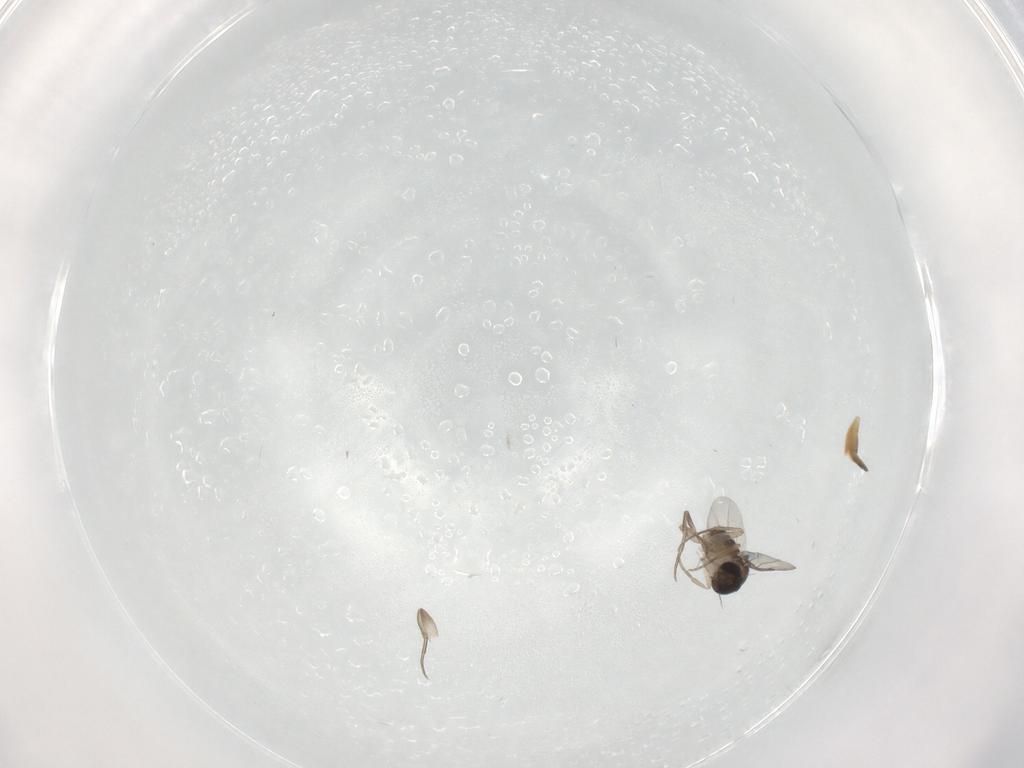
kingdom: Animalia
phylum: Arthropoda
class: Insecta
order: Diptera
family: Phoridae
